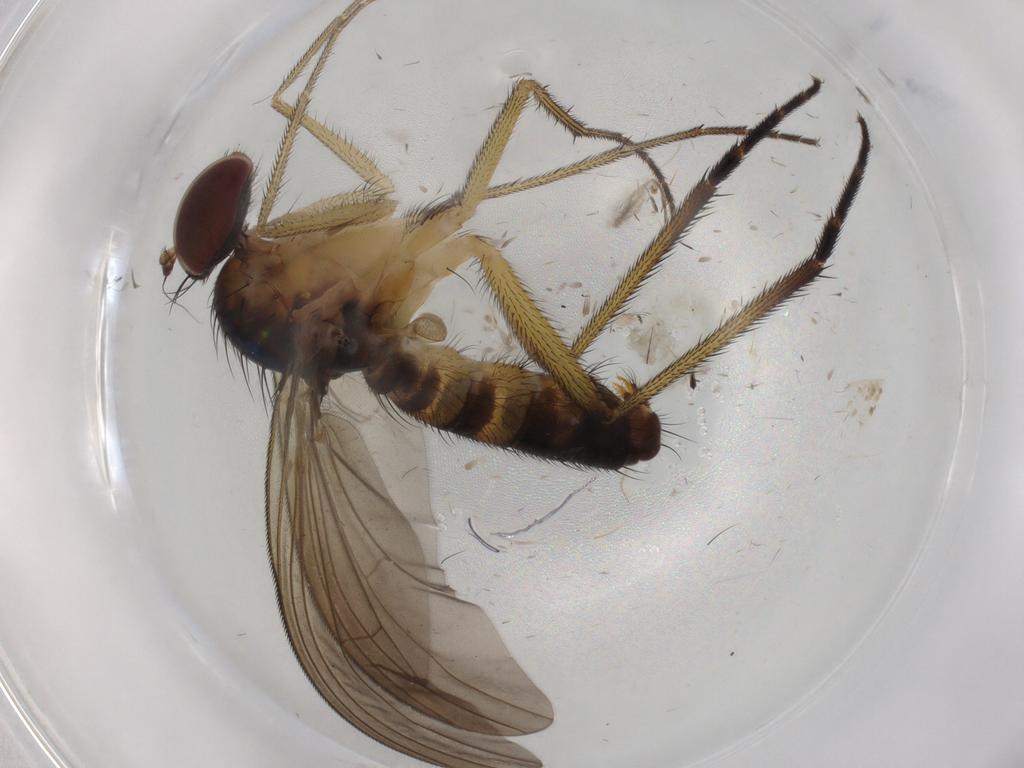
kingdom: Animalia
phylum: Arthropoda
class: Insecta
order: Diptera
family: Dolichopodidae
